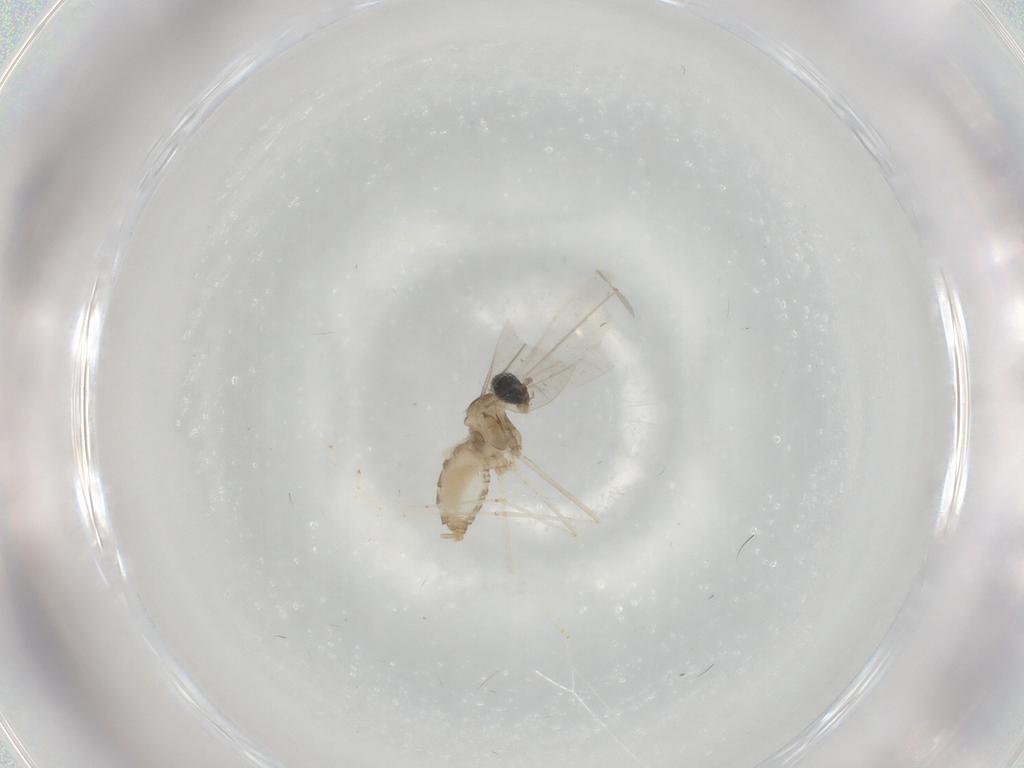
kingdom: Animalia
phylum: Arthropoda
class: Insecta
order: Diptera
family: Cecidomyiidae
